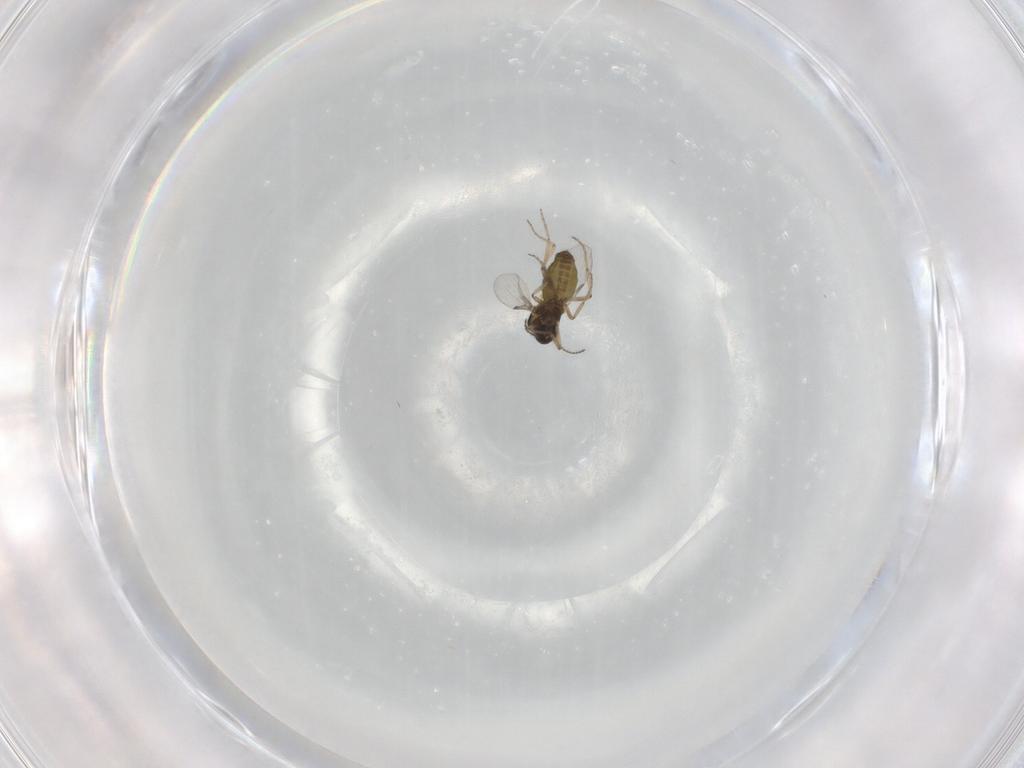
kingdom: Animalia
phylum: Arthropoda
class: Insecta
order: Diptera
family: Ceratopogonidae
